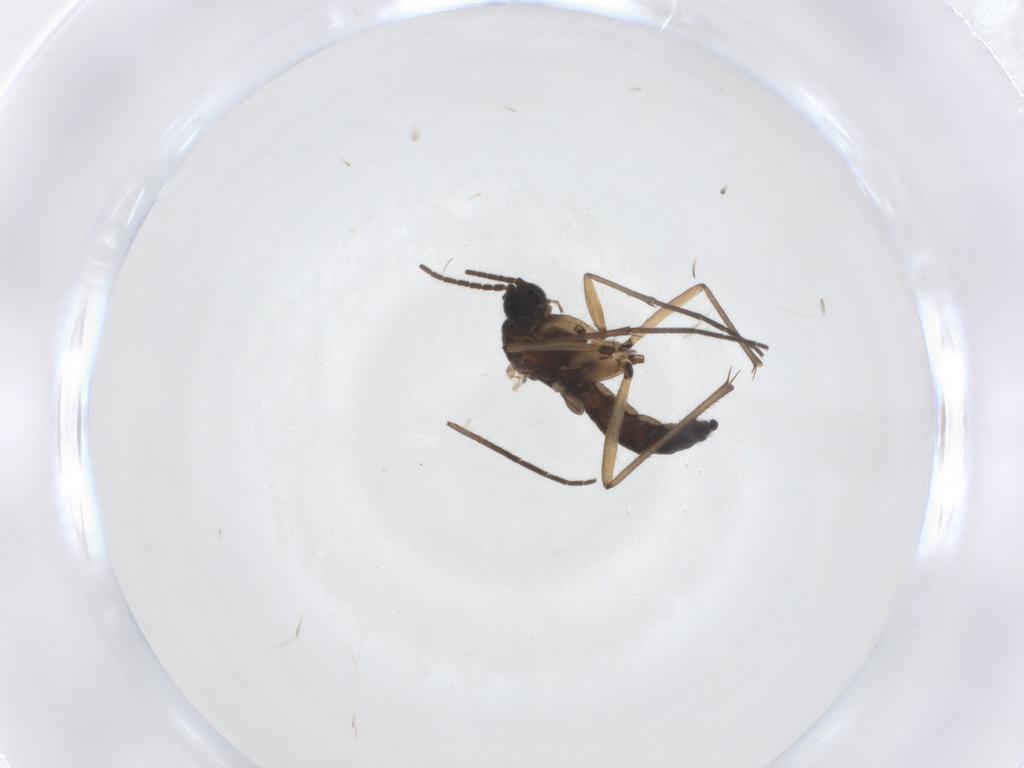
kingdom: Animalia
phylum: Arthropoda
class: Insecta
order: Diptera
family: Sciaridae
